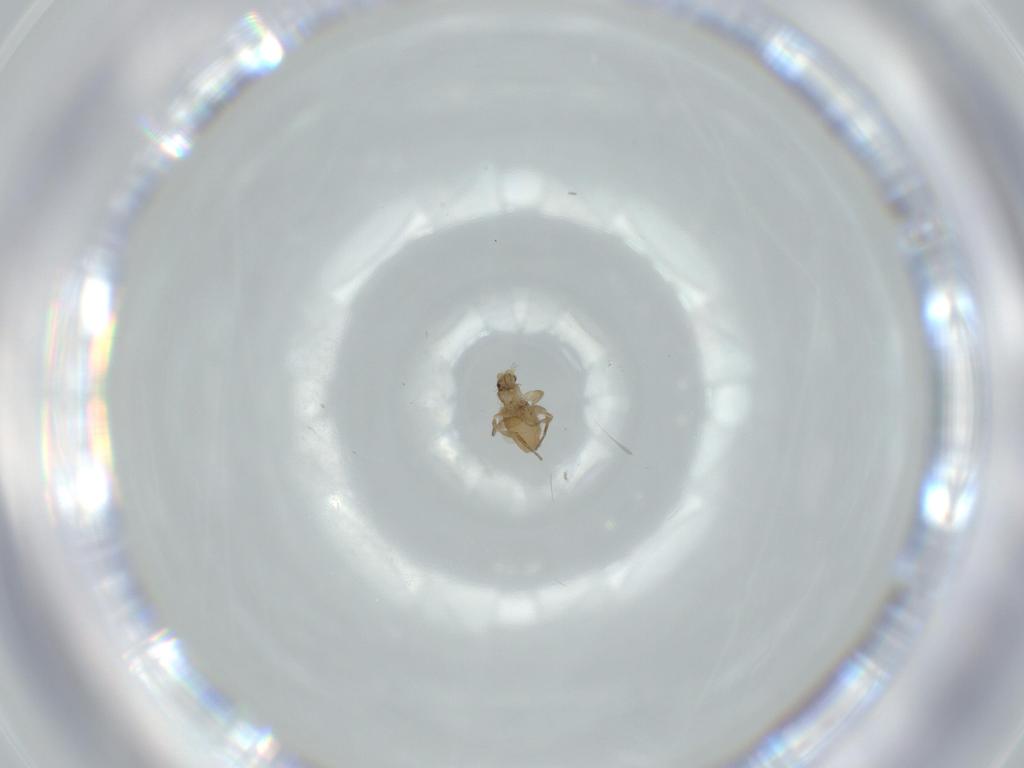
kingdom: Animalia
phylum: Arthropoda
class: Insecta
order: Diptera
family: Phoridae
